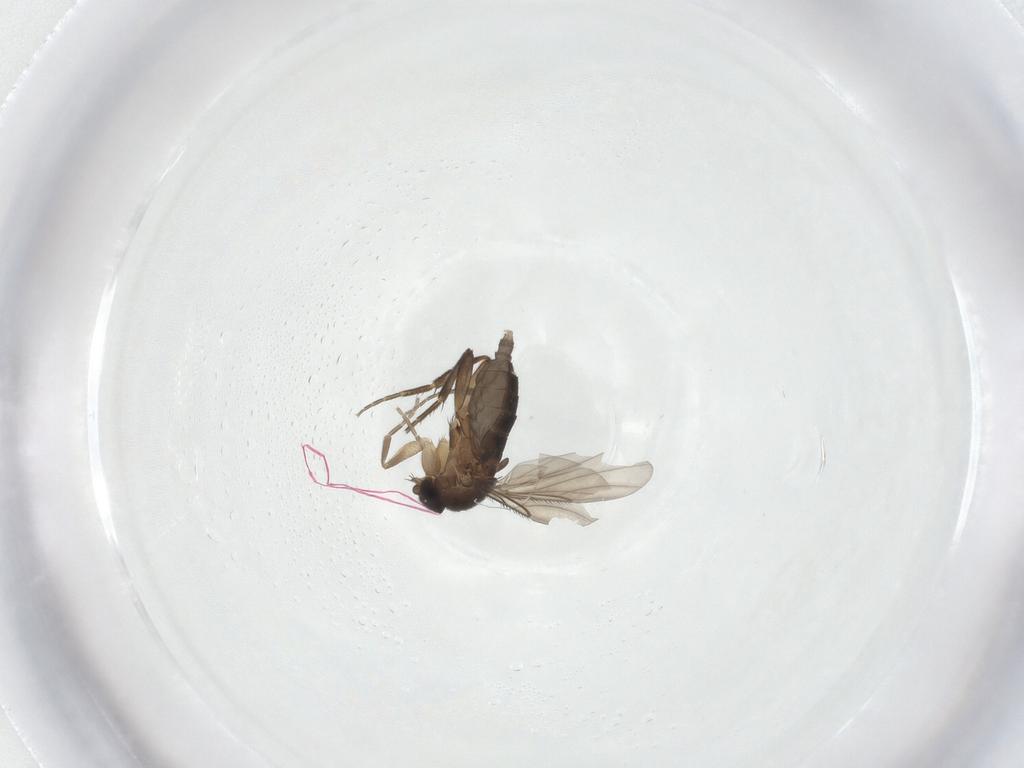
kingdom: Animalia
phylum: Arthropoda
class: Insecta
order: Diptera
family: Phoridae
